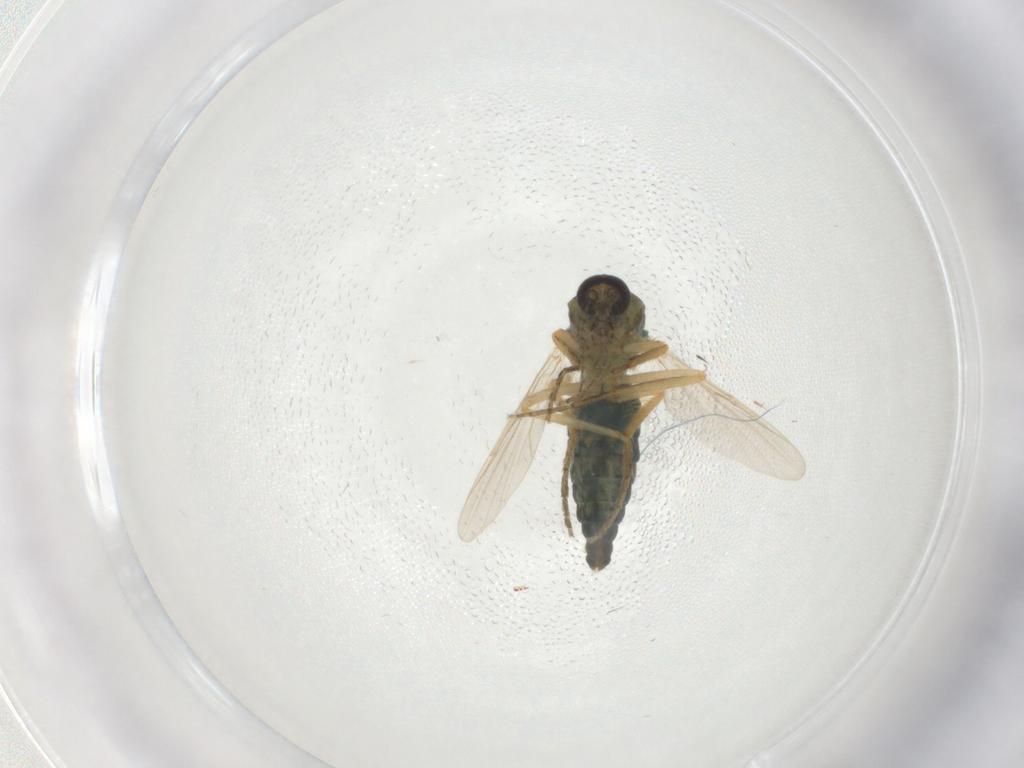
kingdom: Animalia
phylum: Arthropoda
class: Insecta
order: Diptera
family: Ceratopogonidae
